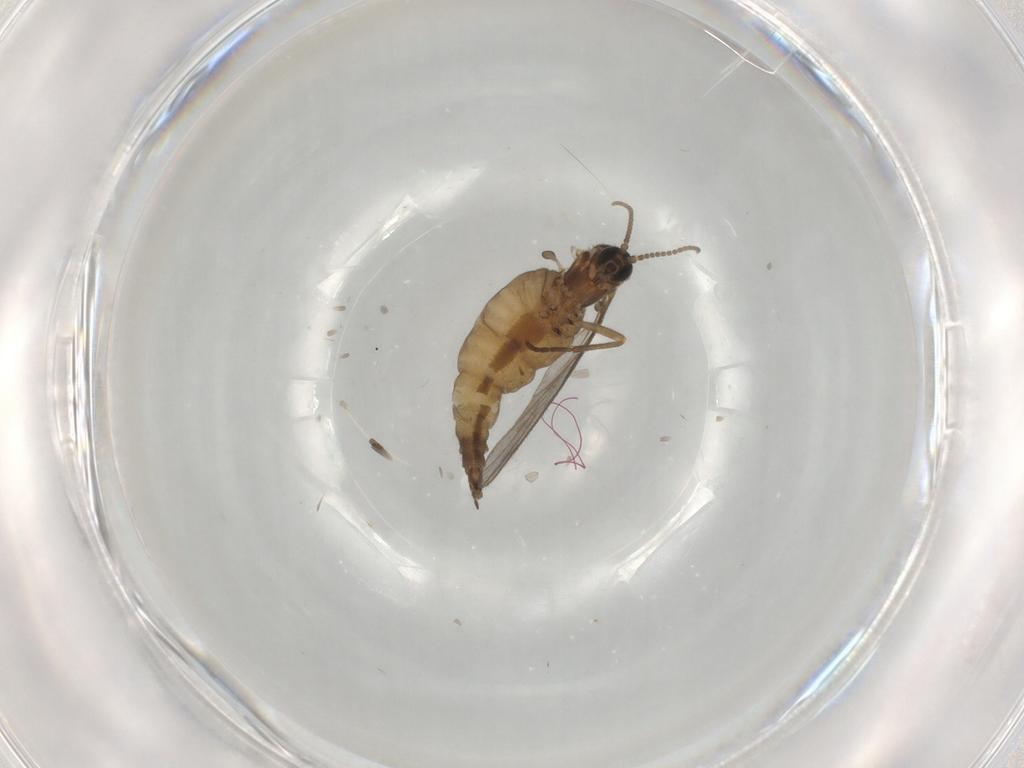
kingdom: Animalia
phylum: Arthropoda
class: Insecta
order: Diptera
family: Sciaridae
